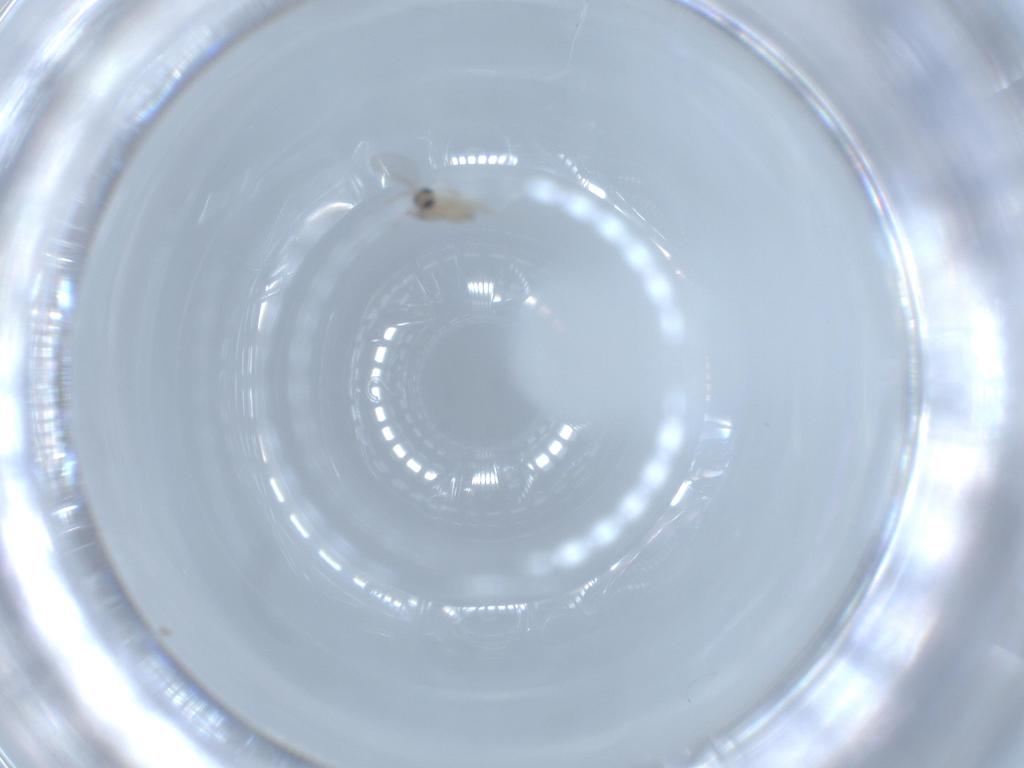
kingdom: Animalia
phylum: Arthropoda
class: Insecta
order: Diptera
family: Cecidomyiidae
